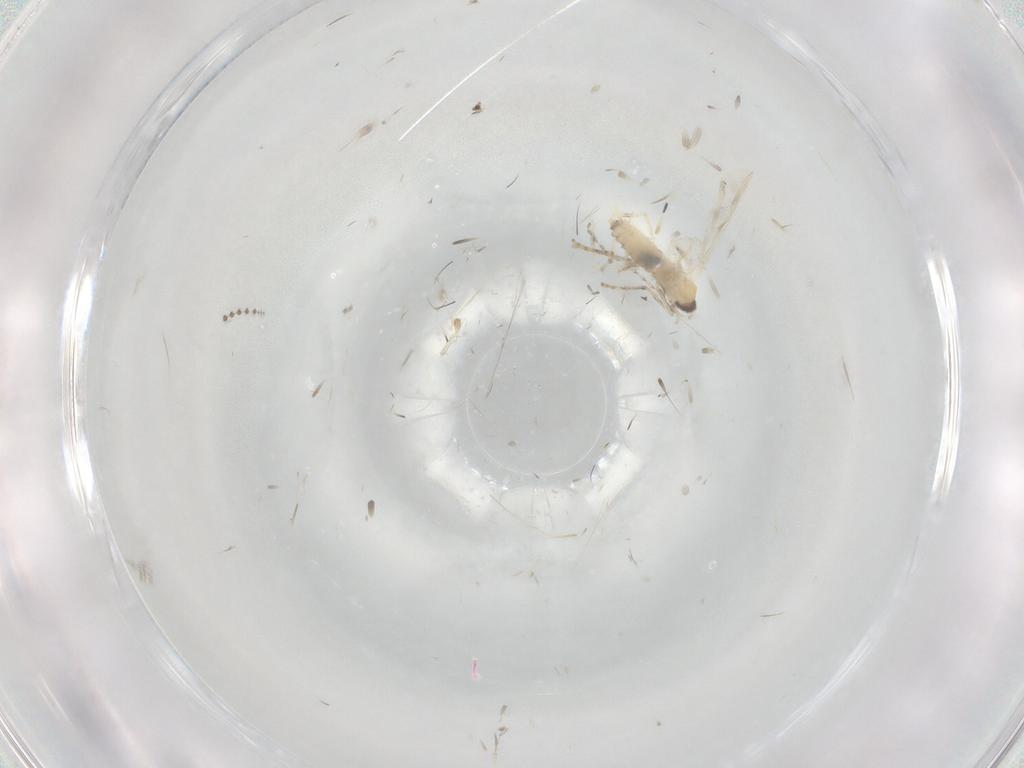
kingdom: Animalia
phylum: Arthropoda
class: Insecta
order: Diptera
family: Cecidomyiidae
